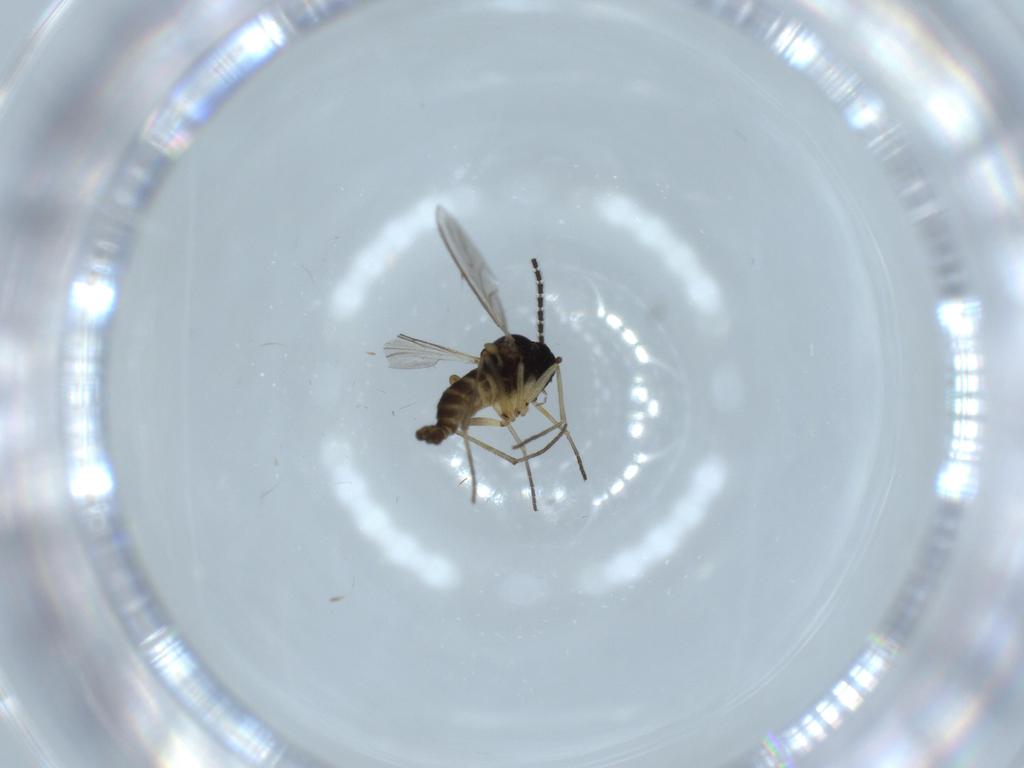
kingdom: Animalia
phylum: Arthropoda
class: Insecta
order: Diptera
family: Sciaridae
